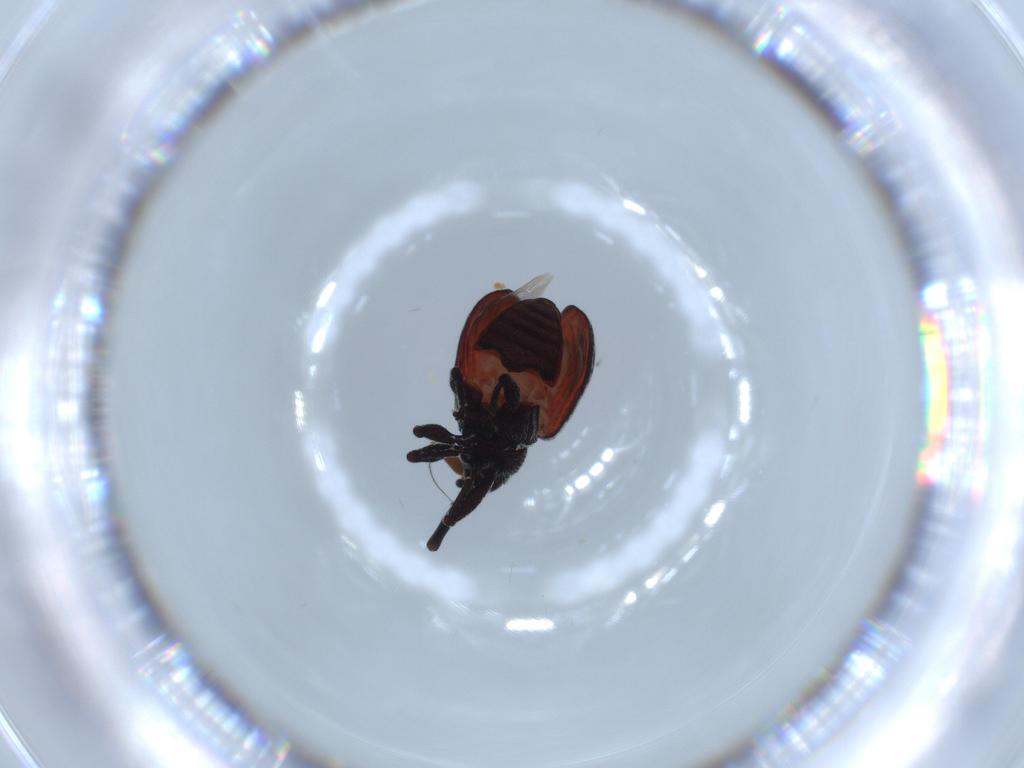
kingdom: Animalia
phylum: Arthropoda
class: Insecta
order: Coleoptera
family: Curculionidae
